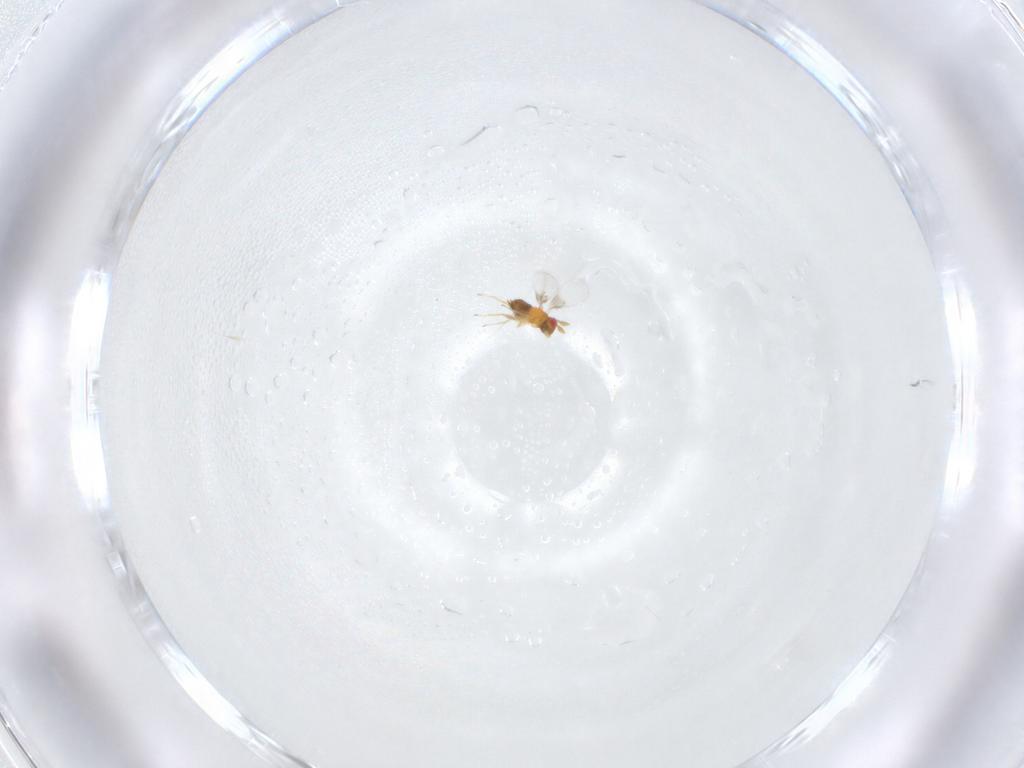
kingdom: Animalia
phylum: Arthropoda
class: Insecta
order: Hymenoptera
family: Trichogrammatidae
